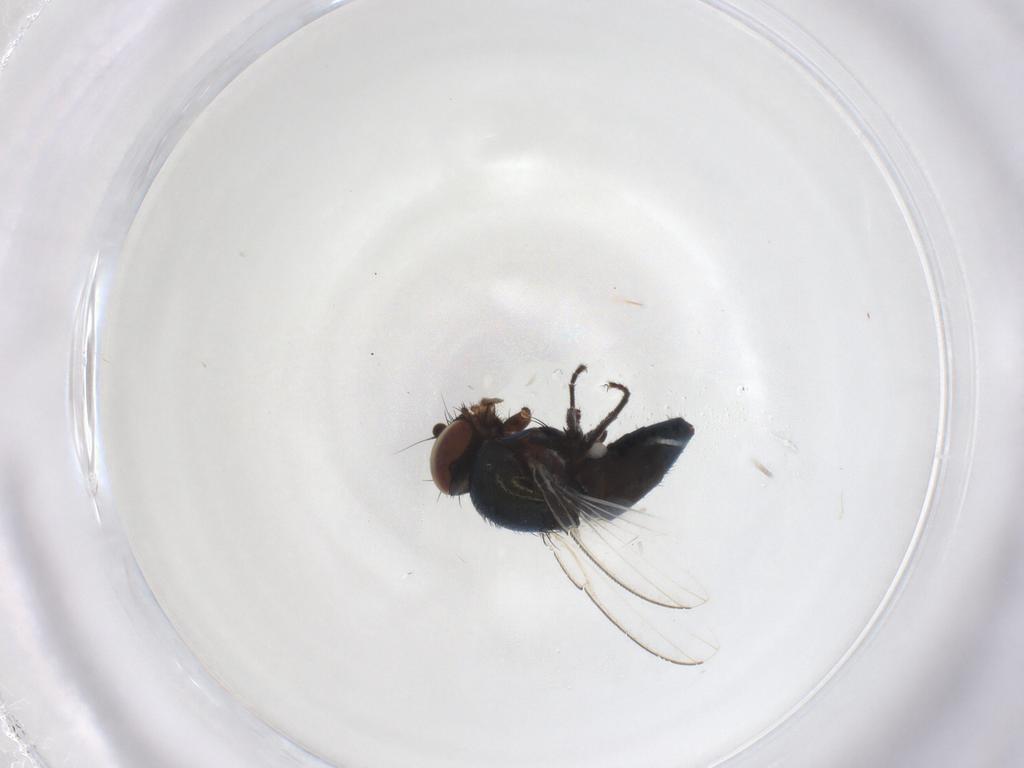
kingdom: Animalia
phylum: Arthropoda
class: Insecta
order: Diptera
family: Milichiidae
